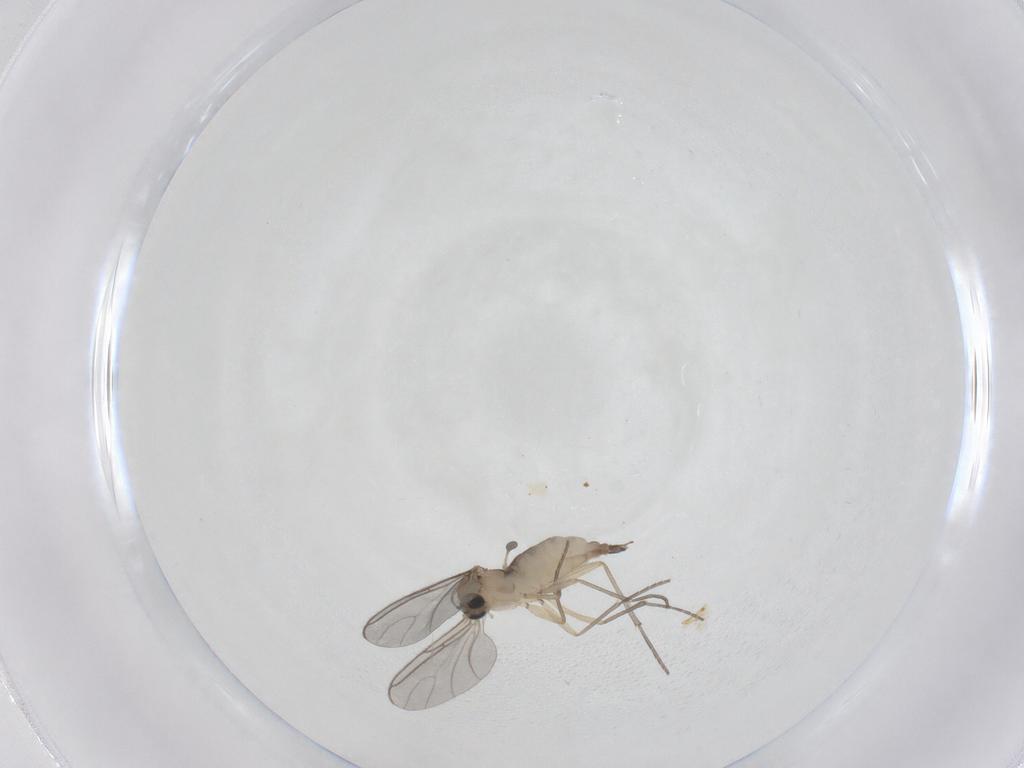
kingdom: Animalia
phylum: Arthropoda
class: Insecta
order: Diptera
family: Sciaridae
